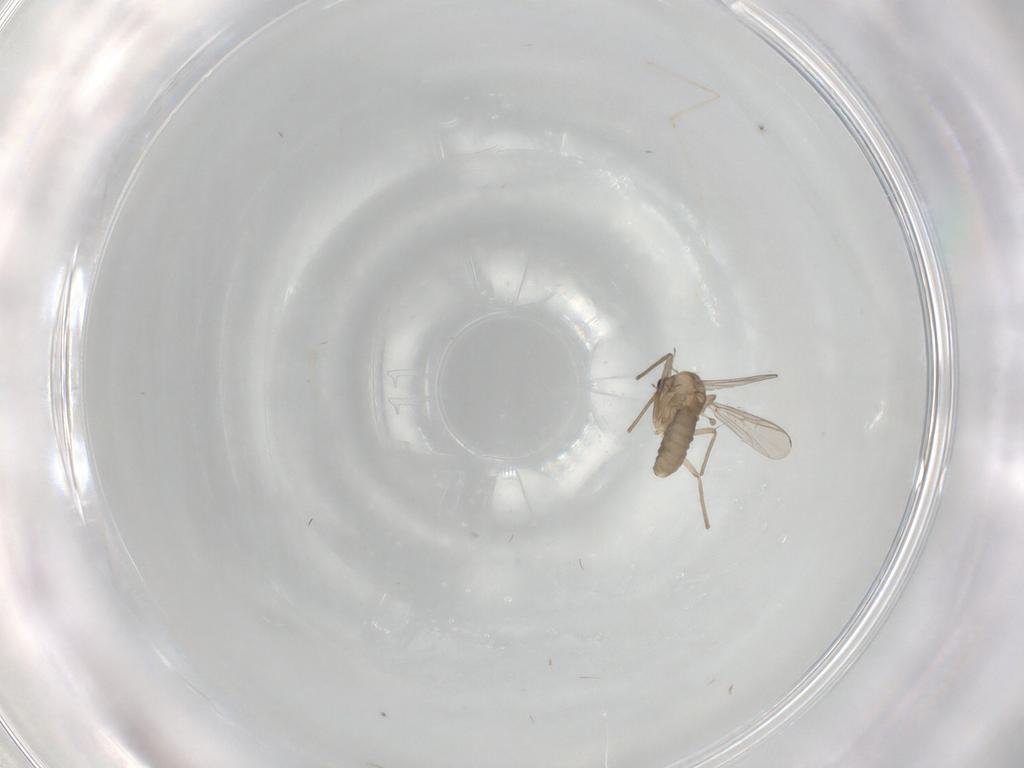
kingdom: Animalia
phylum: Arthropoda
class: Insecta
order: Diptera
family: Chironomidae
